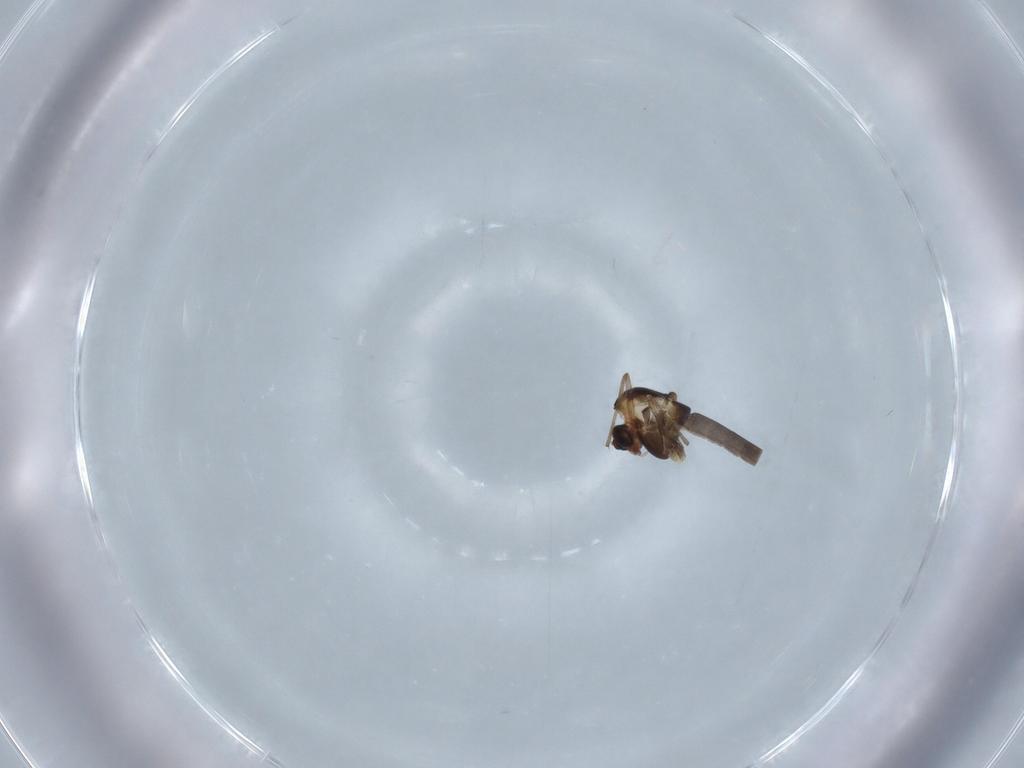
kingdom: Animalia
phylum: Arthropoda
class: Insecta
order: Diptera
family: Chironomidae
